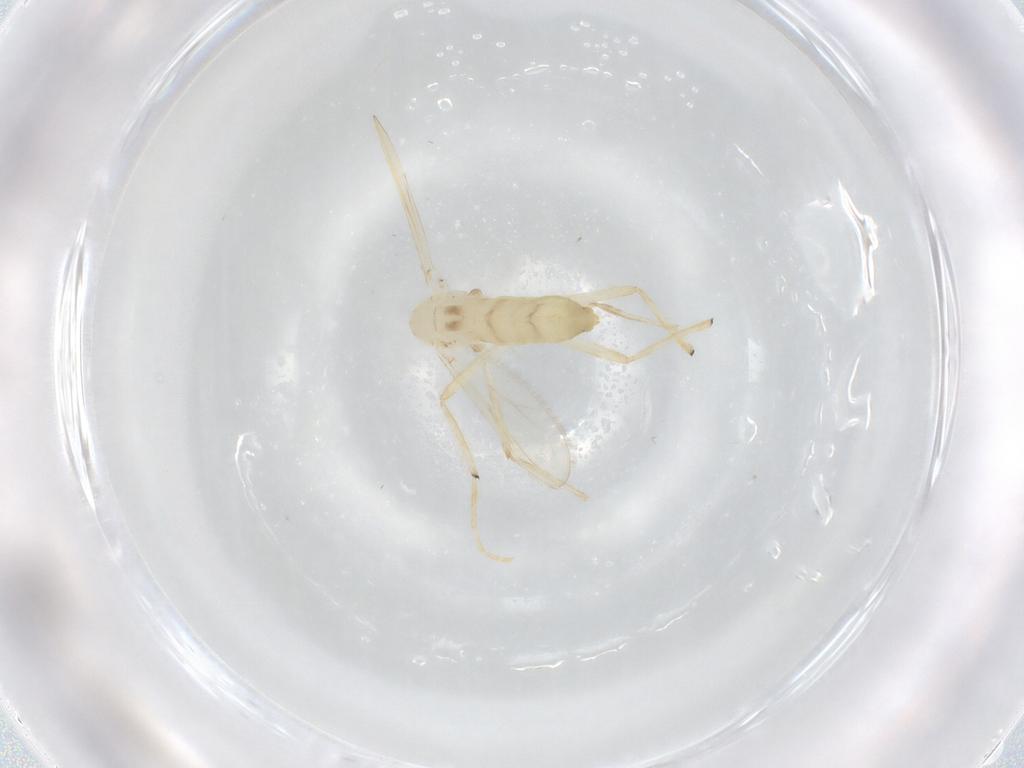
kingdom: Animalia
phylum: Arthropoda
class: Insecta
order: Diptera
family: Chironomidae
